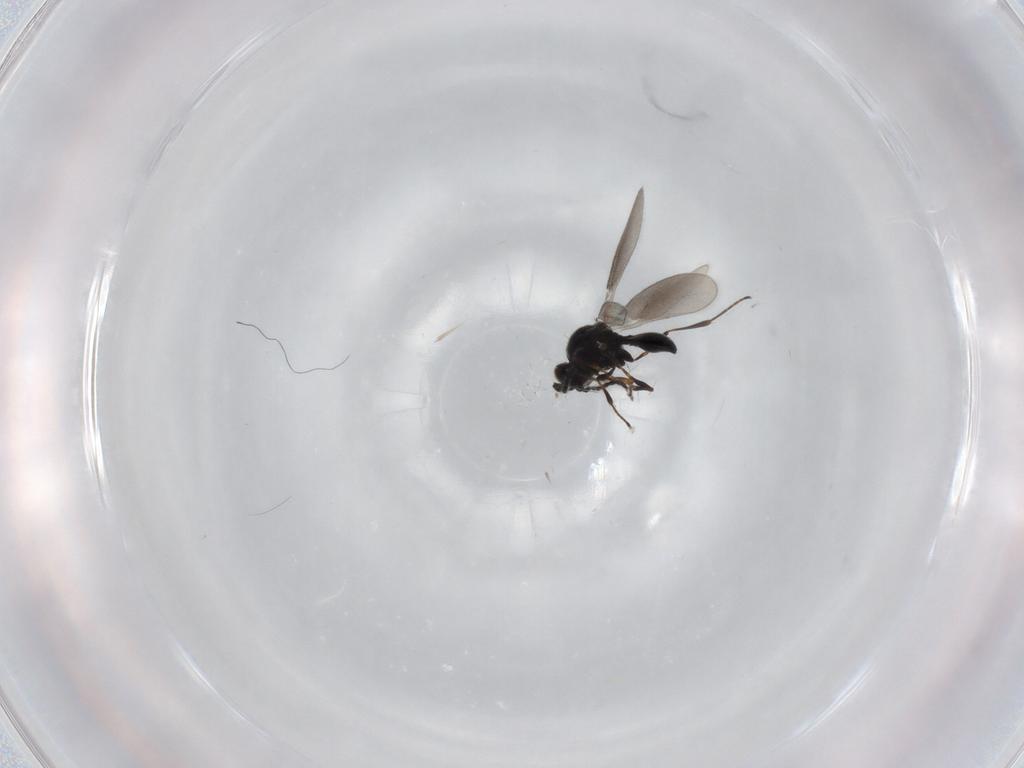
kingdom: Animalia
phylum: Arthropoda
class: Insecta
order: Hymenoptera
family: Platygastridae
